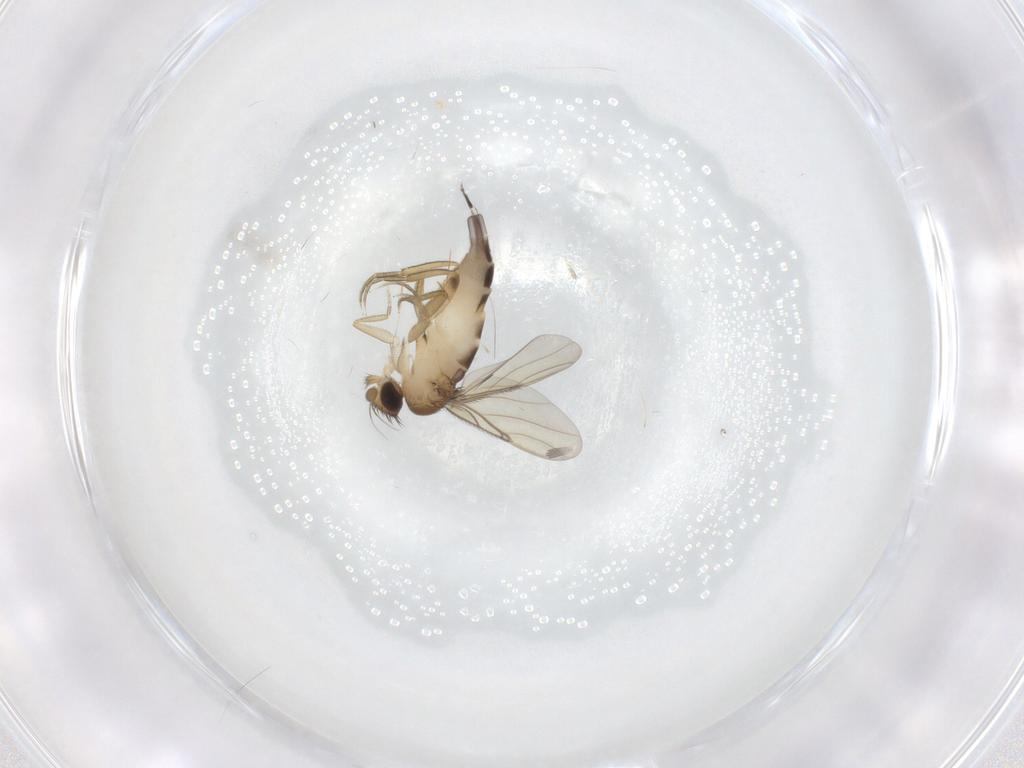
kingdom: Animalia
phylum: Arthropoda
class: Insecta
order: Diptera
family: Phoridae
